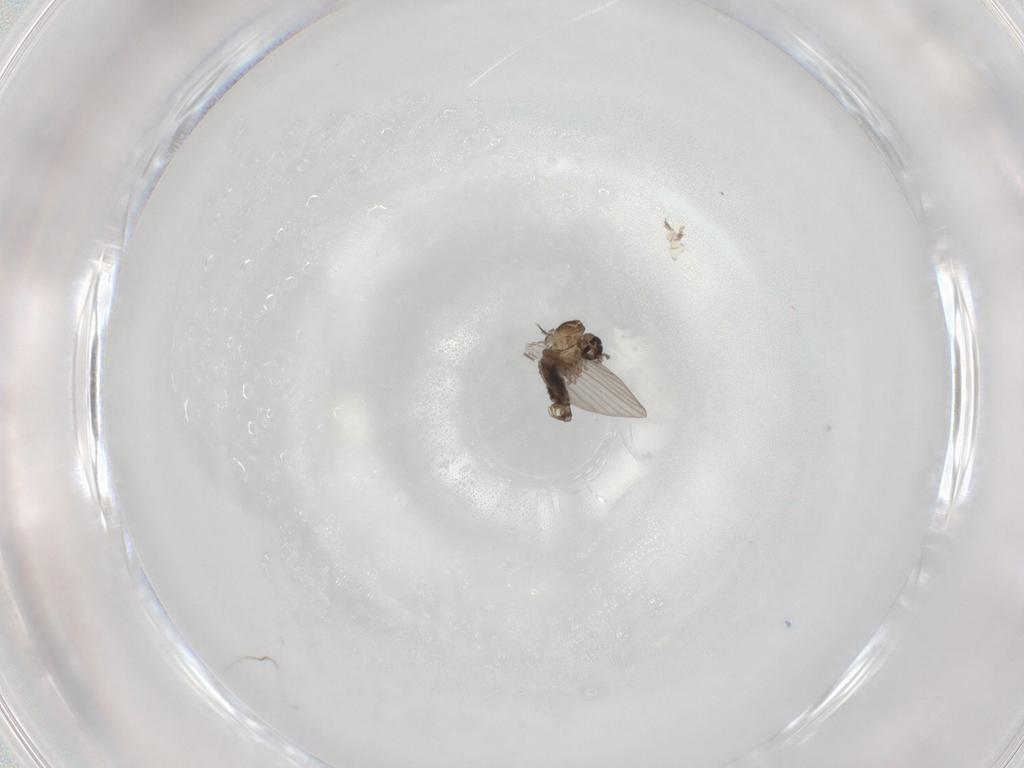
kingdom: Animalia
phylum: Arthropoda
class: Insecta
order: Diptera
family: Psychodidae
